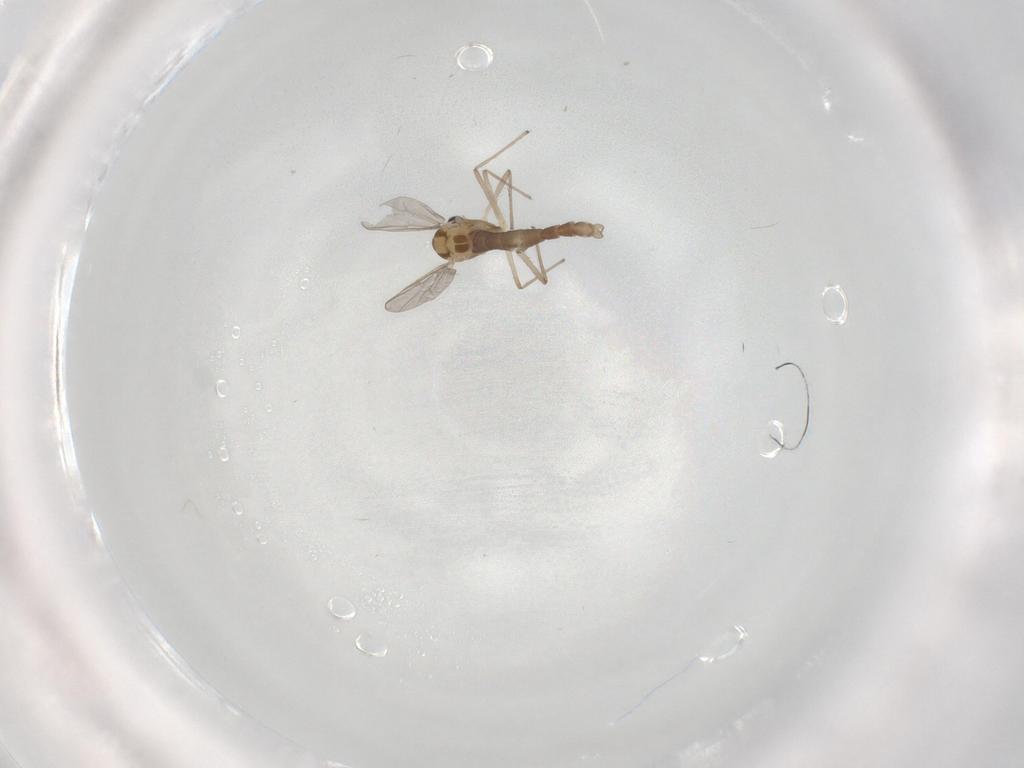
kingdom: Animalia
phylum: Arthropoda
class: Insecta
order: Diptera
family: Chironomidae
